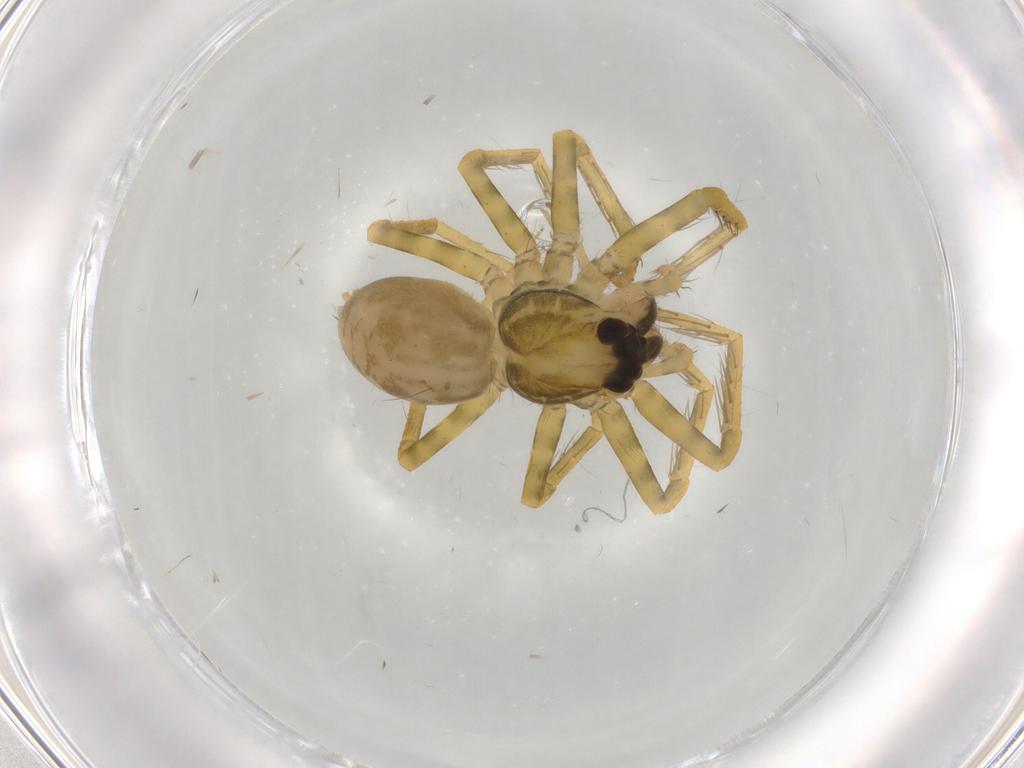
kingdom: Animalia
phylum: Arthropoda
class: Arachnida
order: Araneae
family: Ctenidae
